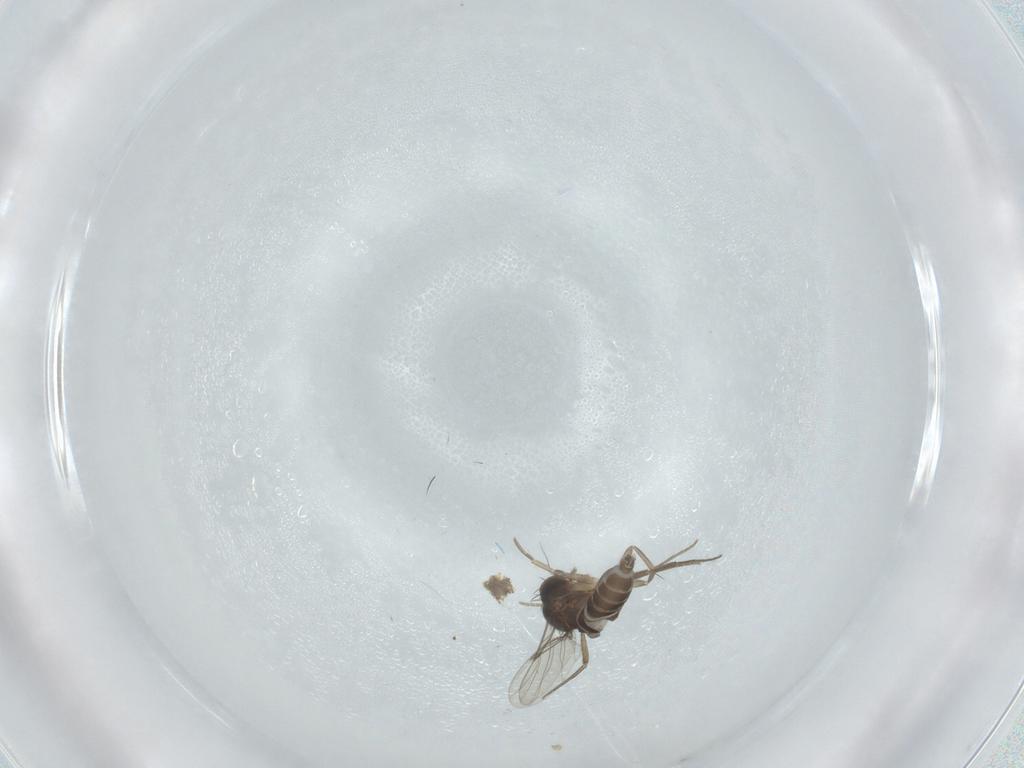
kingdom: Animalia
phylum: Arthropoda
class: Insecta
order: Diptera
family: Phoridae
